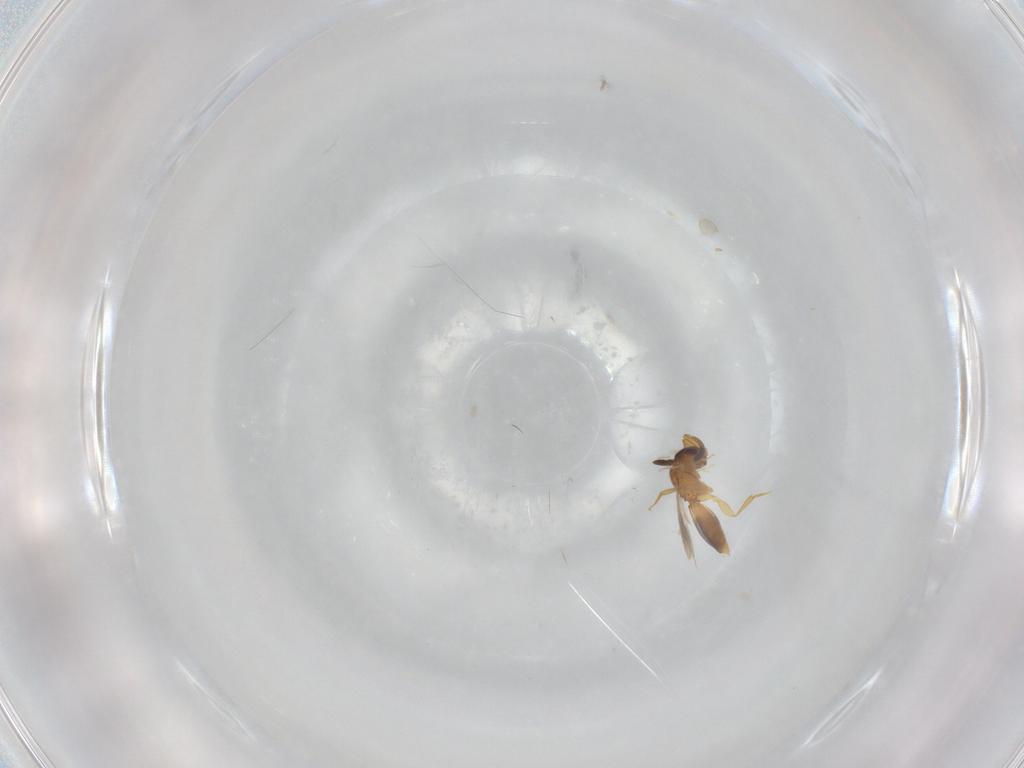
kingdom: Animalia
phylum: Arthropoda
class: Insecta
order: Hymenoptera
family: Ceraphronidae
